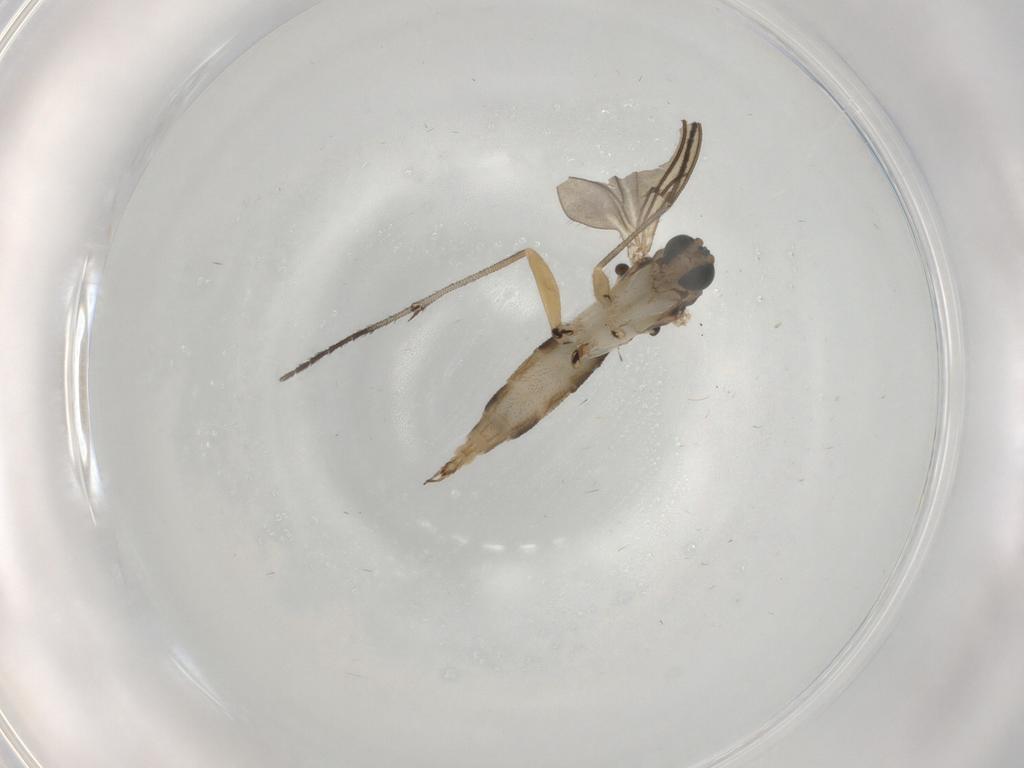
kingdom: Animalia
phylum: Arthropoda
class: Insecta
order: Diptera
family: Sciaridae
